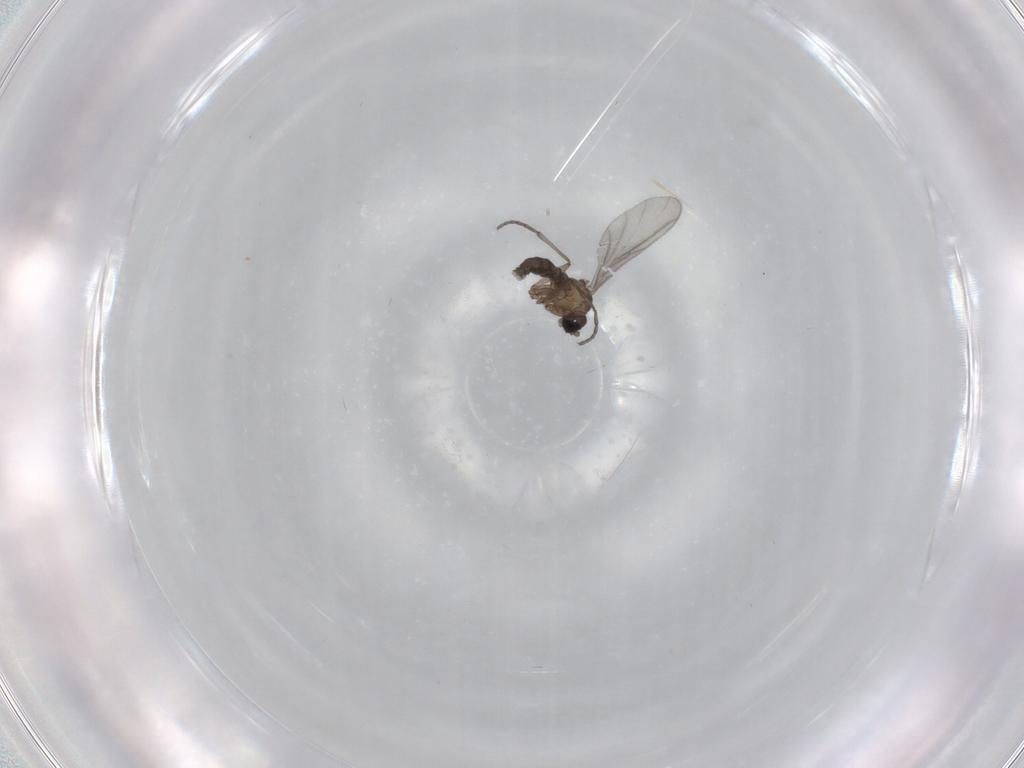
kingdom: Animalia
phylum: Arthropoda
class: Insecta
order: Diptera
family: Sciaridae
